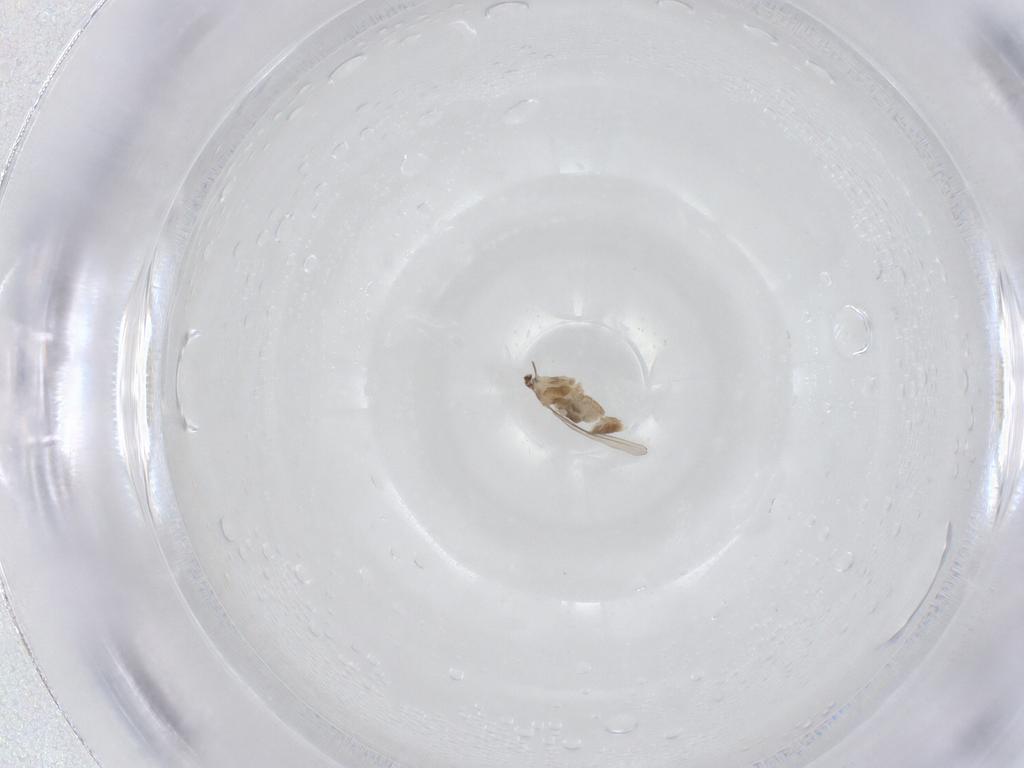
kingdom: Animalia
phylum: Arthropoda
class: Insecta
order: Diptera
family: Cecidomyiidae
